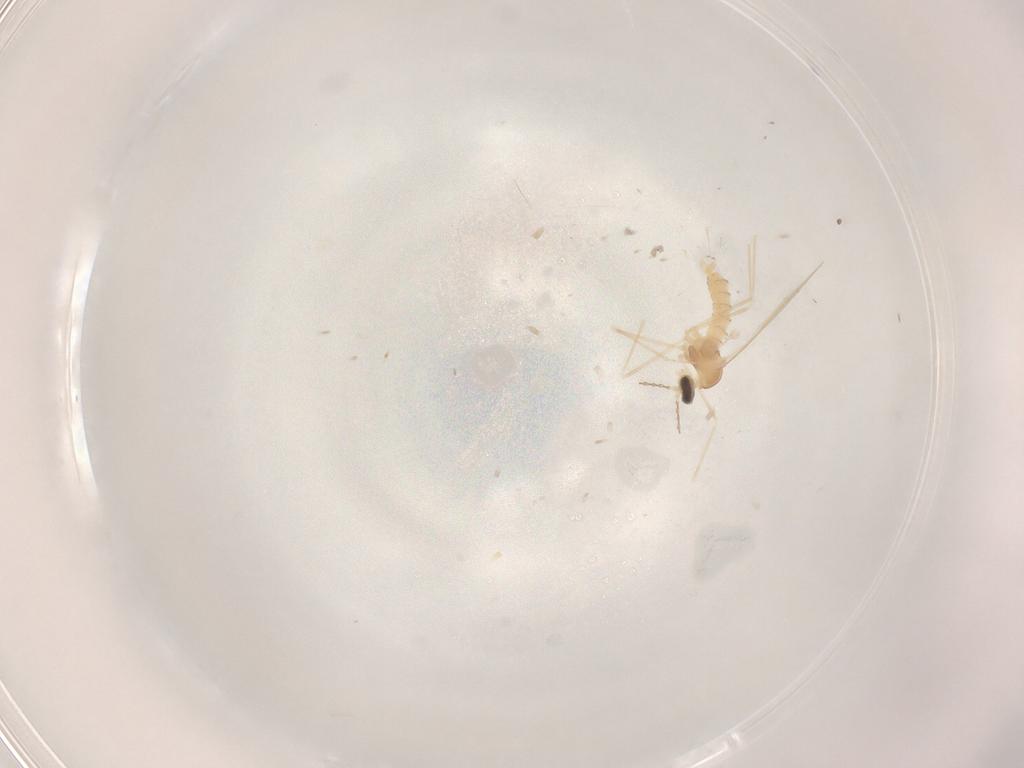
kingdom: Animalia
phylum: Arthropoda
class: Insecta
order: Diptera
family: Cecidomyiidae
